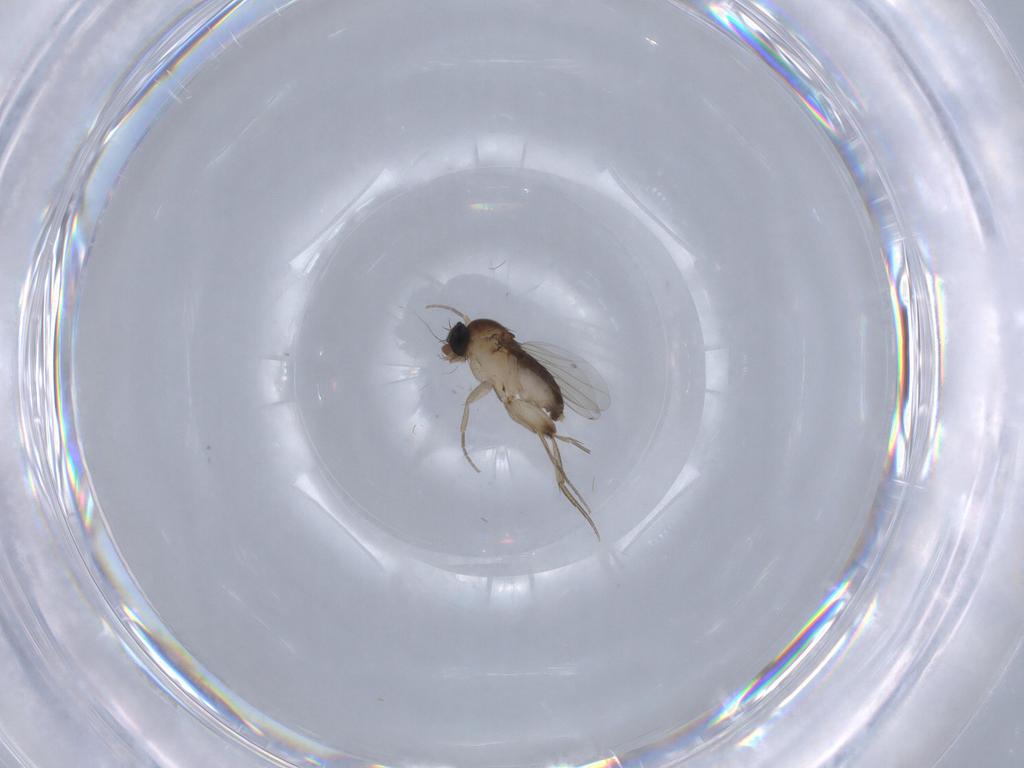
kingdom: Animalia
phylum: Arthropoda
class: Insecta
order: Diptera
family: Phoridae
